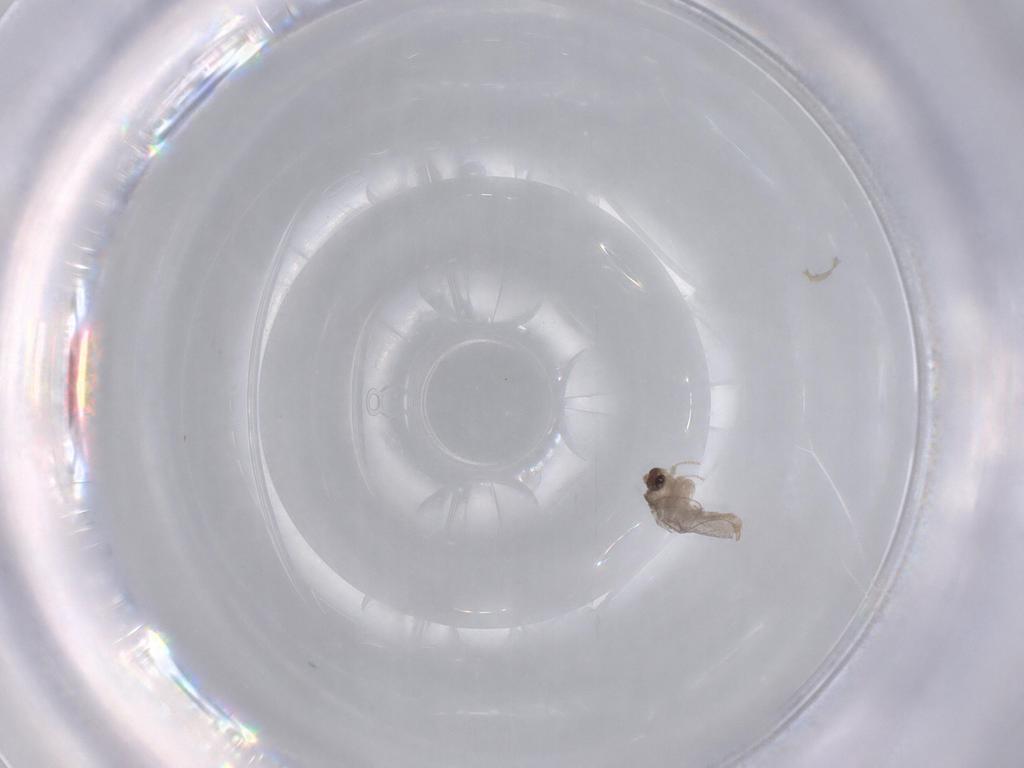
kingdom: Animalia
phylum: Arthropoda
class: Insecta
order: Diptera
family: Cecidomyiidae
